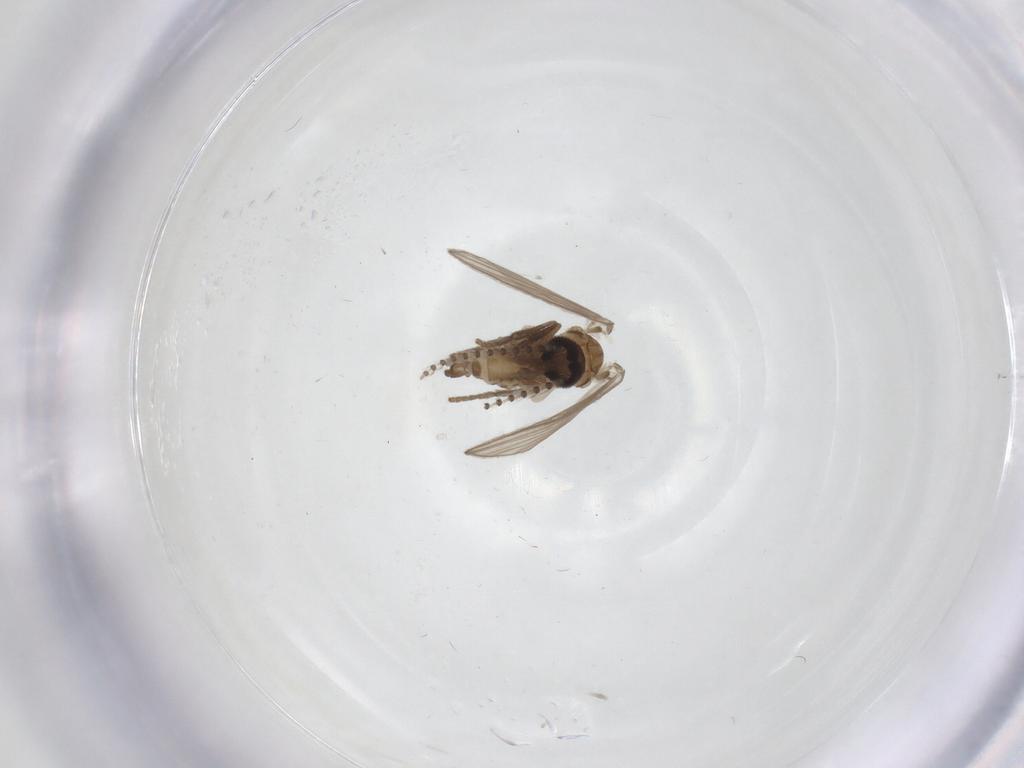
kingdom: Animalia
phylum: Arthropoda
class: Insecta
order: Diptera
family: Psychodidae
